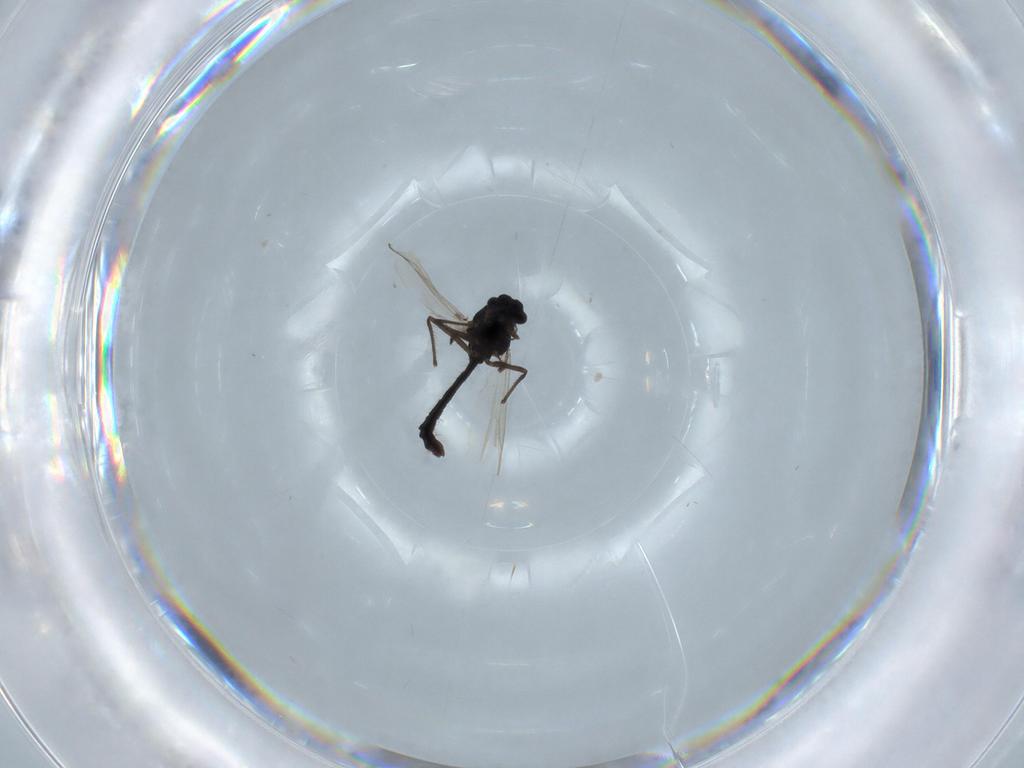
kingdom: Animalia
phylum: Arthropoda
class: Insecta
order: Diptera
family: Chironomidae
